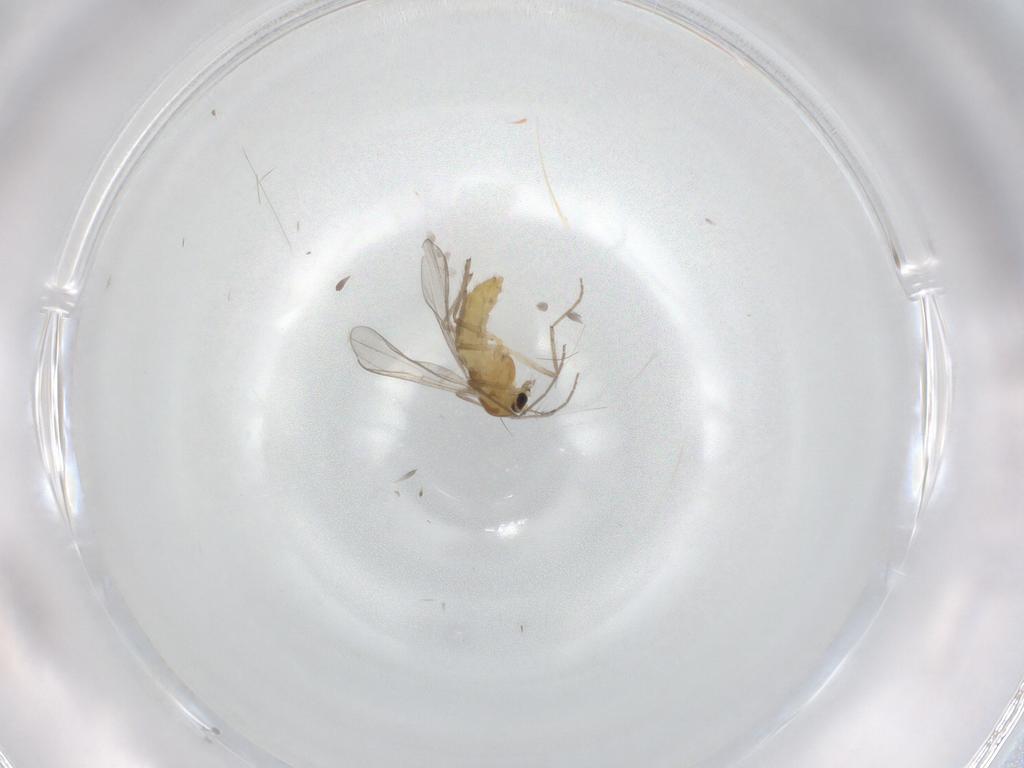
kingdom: Animalia
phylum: Arthropoda
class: Insecta
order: Diptera
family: Chironomidae
